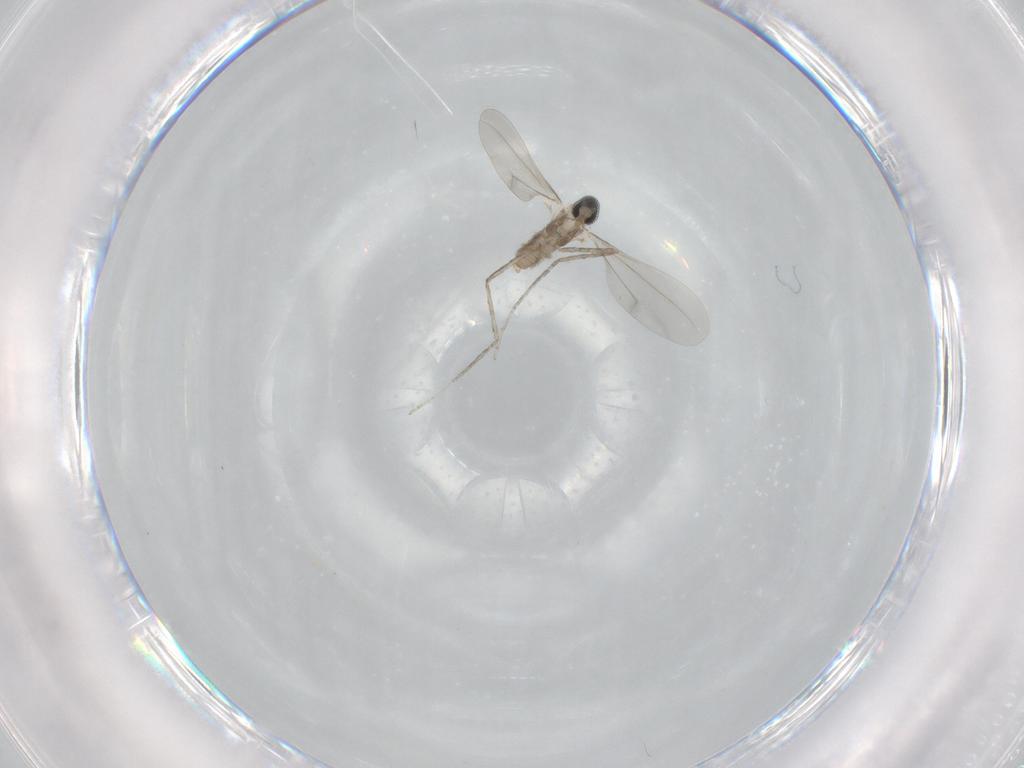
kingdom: Animalia
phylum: Arthropoda
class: Insecta
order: Diptera
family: Cecidomyiidae
